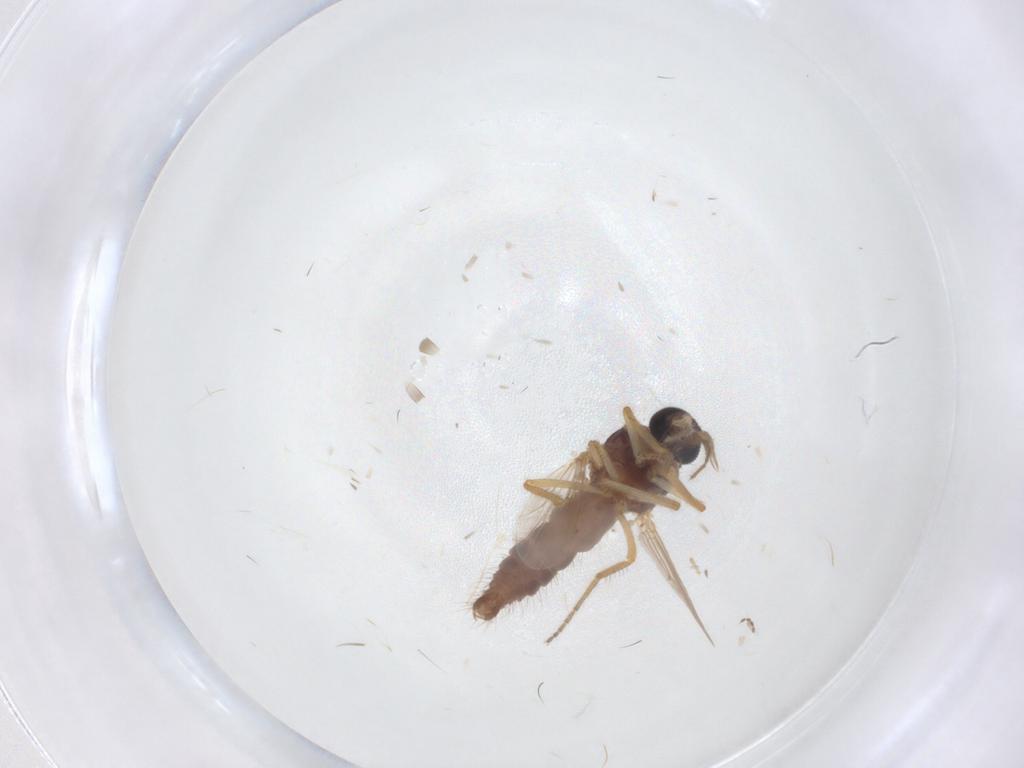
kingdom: Animalia
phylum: Arthropoda
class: Insecta
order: Diptera
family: Ceratopogonidae
